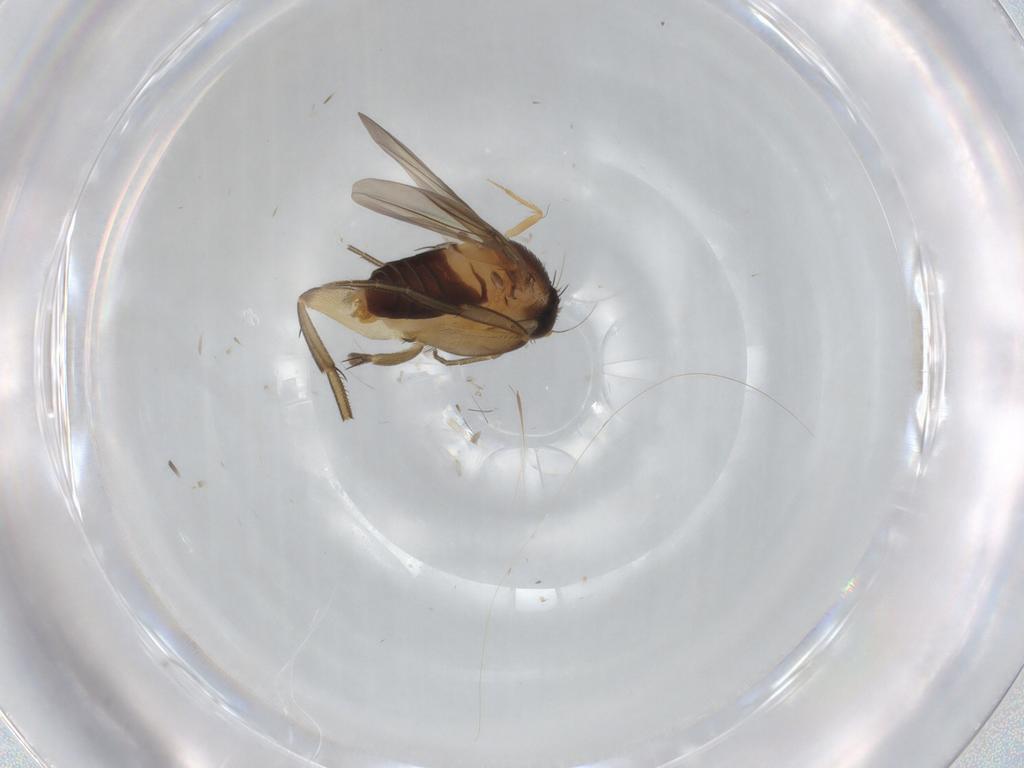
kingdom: Animalia
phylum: Arthropoda
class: Insecta
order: Diptera
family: Phoridae
